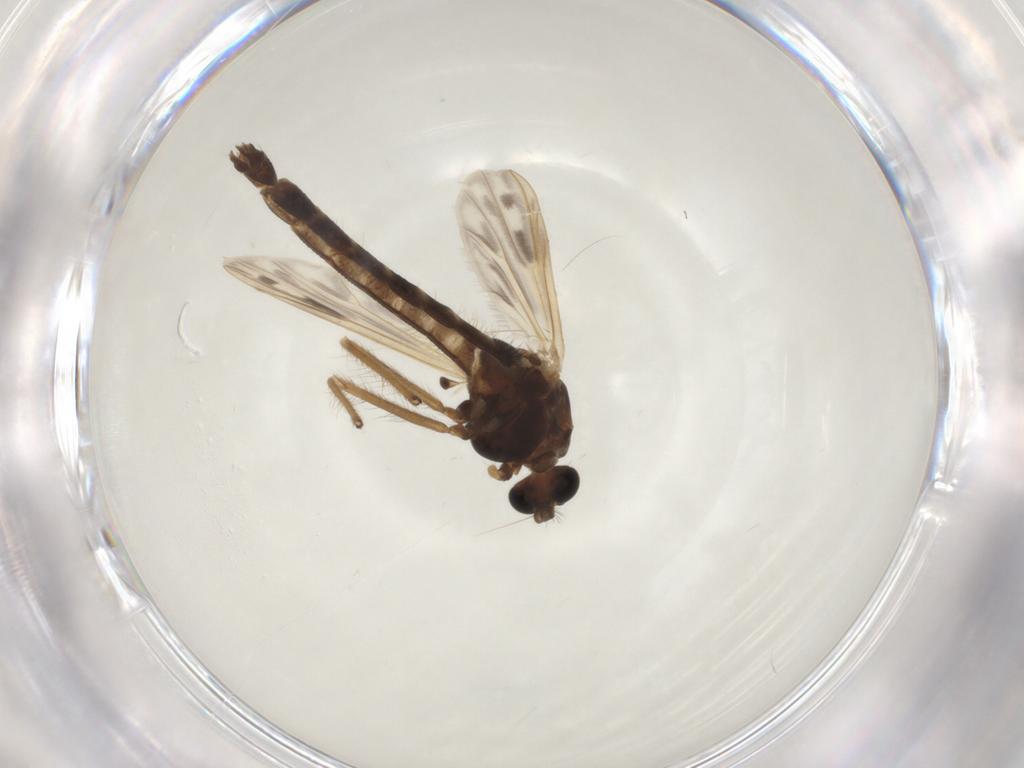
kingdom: Animalia
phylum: Arthropoda
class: Insecta
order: Diptera
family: Chironomidae
